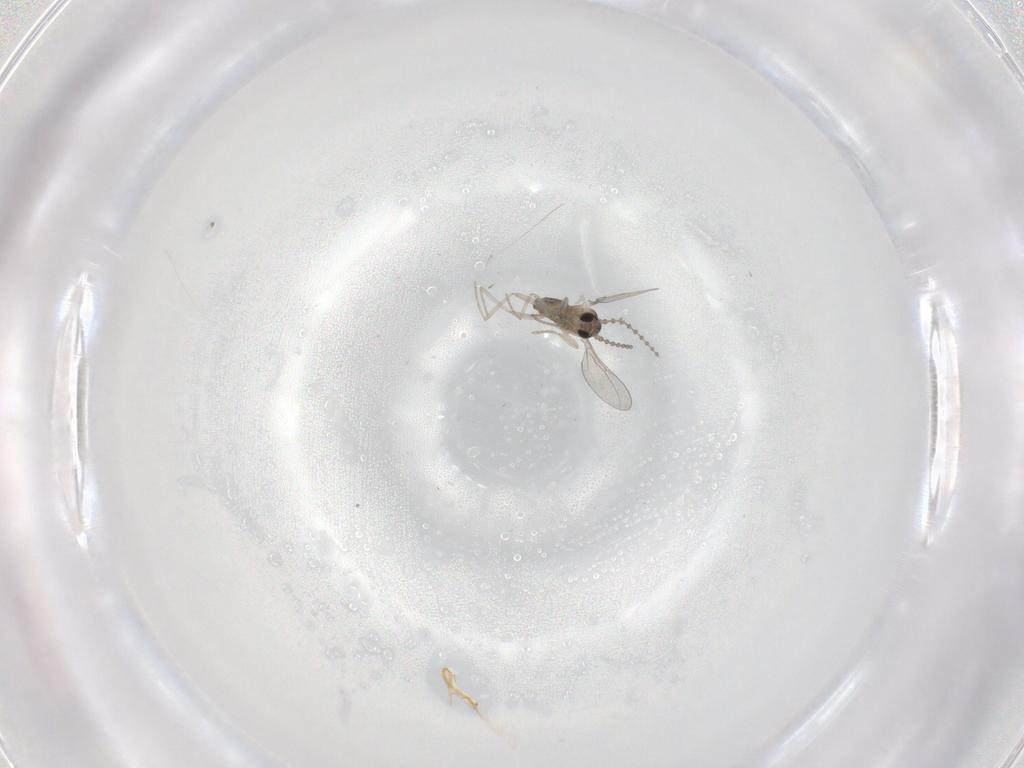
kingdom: Animalia
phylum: Arthropoda
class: Insecta
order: Diptera
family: Cecidomyiidae
